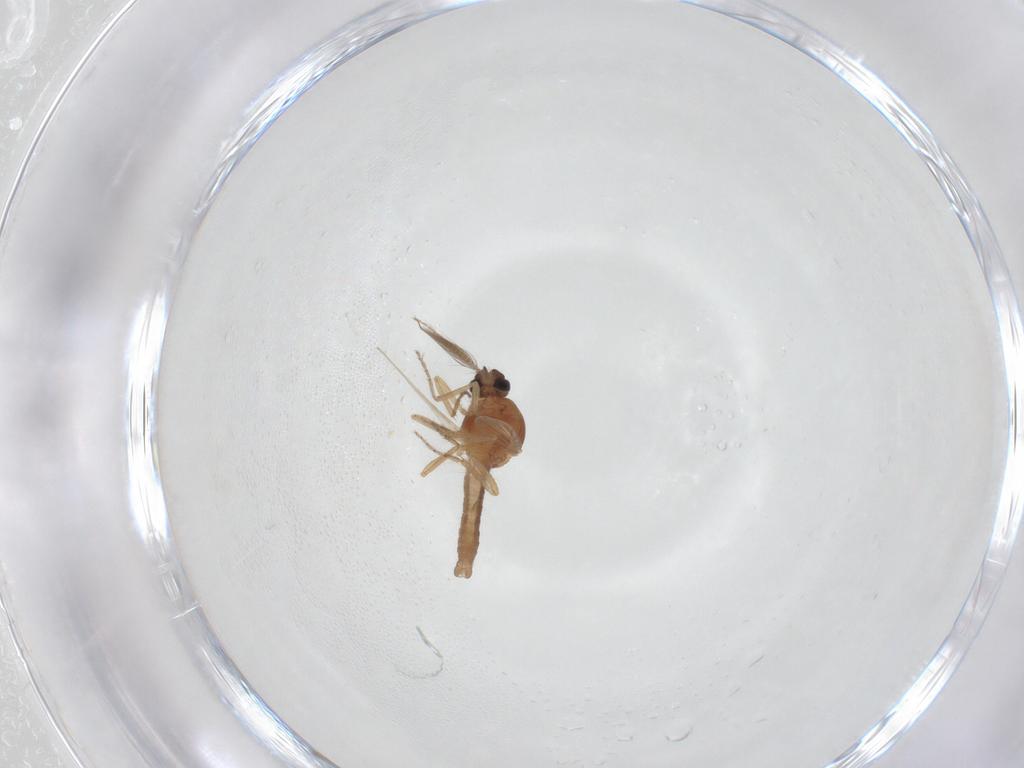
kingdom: Animalia
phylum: Arthropoda
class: Insecta
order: Diptera
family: Ceratopogonidae
